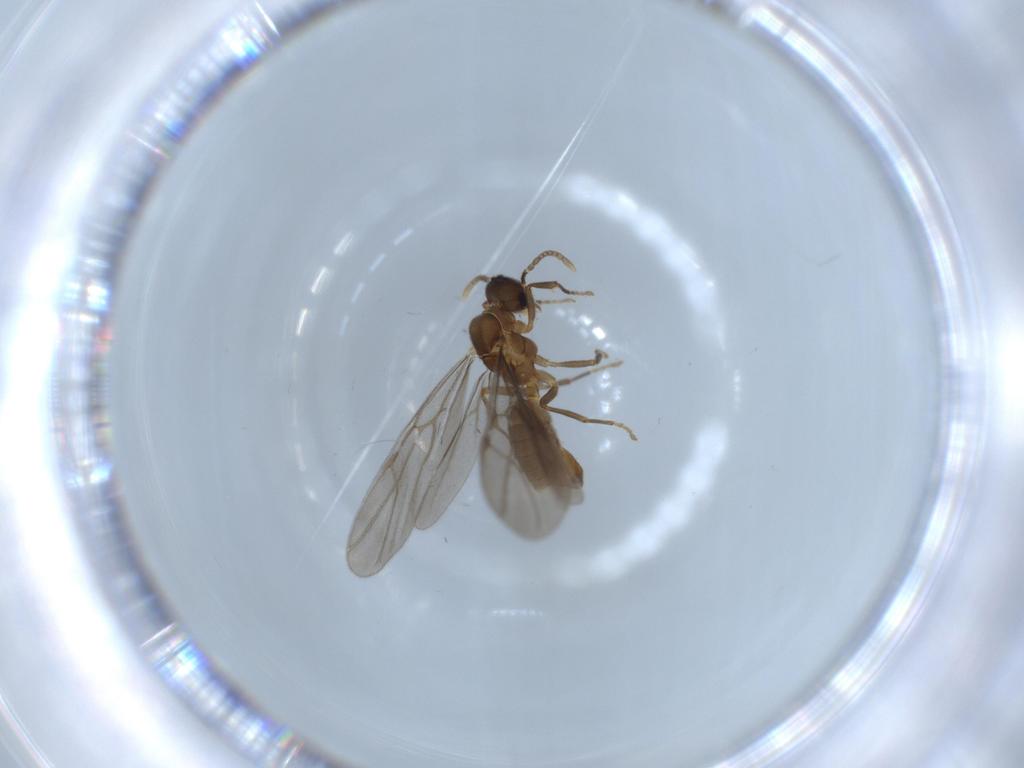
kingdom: Animalia
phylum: Arthropoda
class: Insecta
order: Hymenoptera
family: Formicidae
